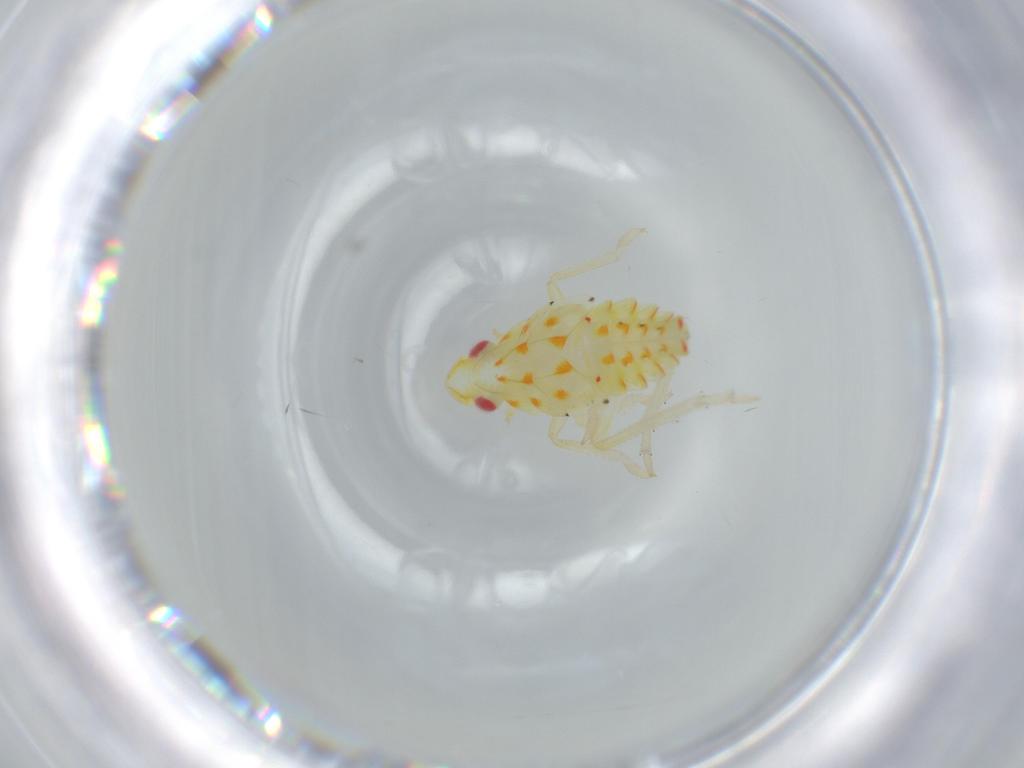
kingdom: Animalia
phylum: Arthropoda
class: Insecta
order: Hemiptera
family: Tropiduchidae
